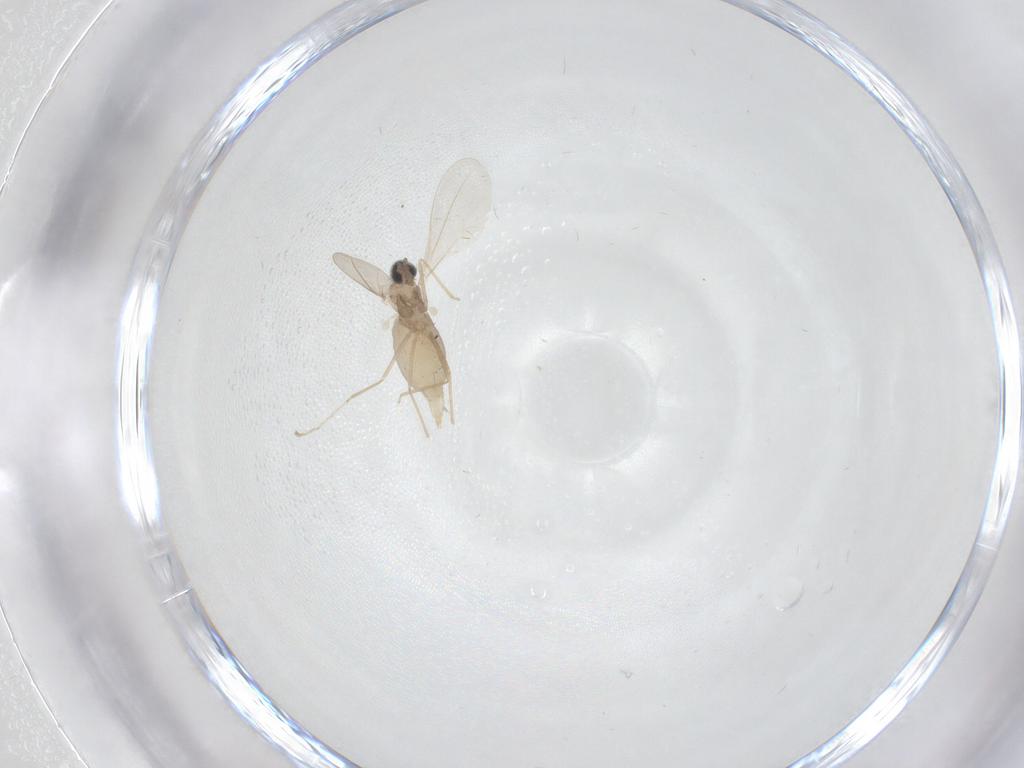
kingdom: Animalia
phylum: Arthropoda
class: Insecta
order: Diptera
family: Cecidomyiidae
